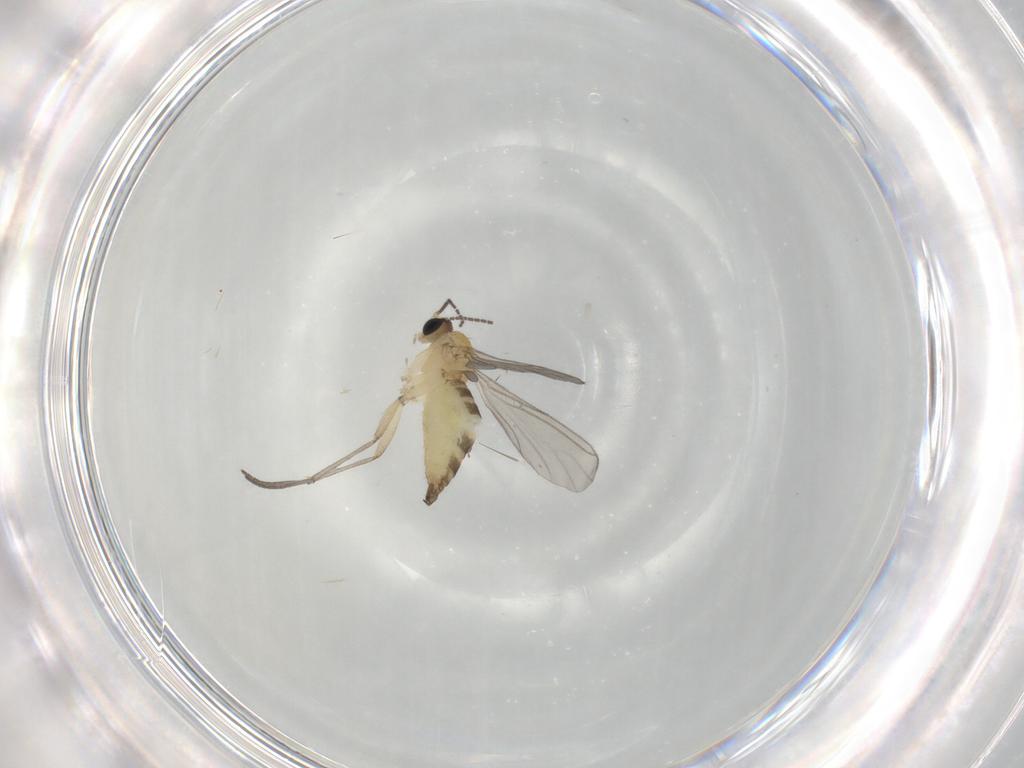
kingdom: Animalia
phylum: Arthropoda
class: Insecta
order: Diptera
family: Sciaridae
